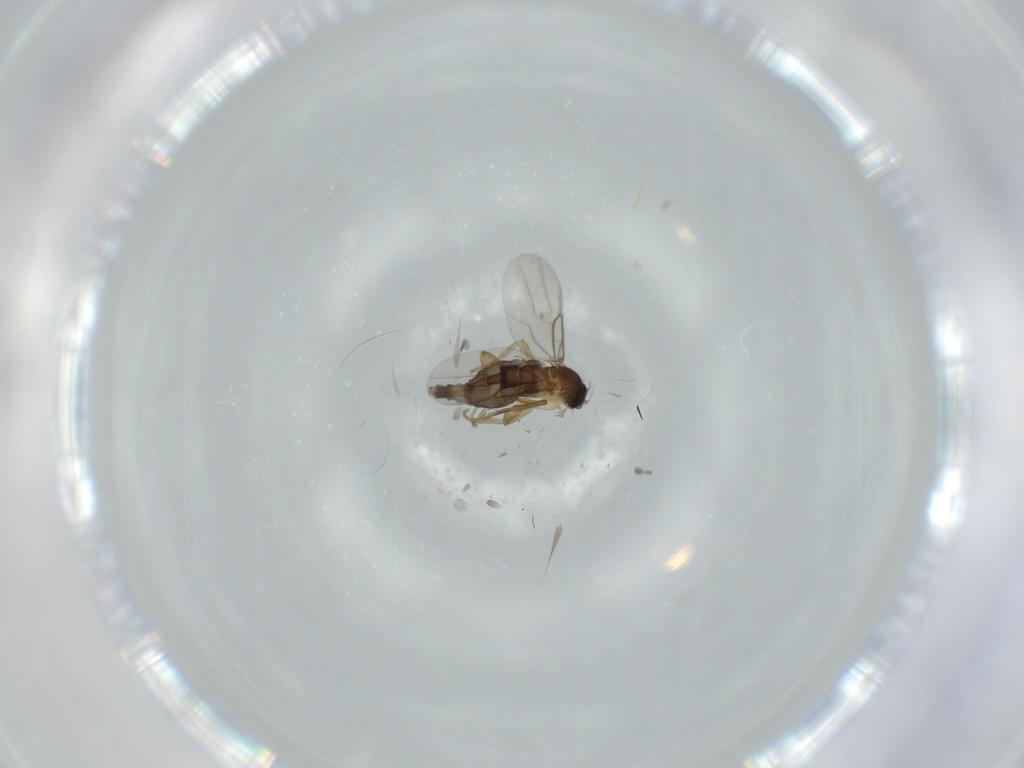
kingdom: Animalia
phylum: Arthropoda
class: Insecta
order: Diptera
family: Phoridae
